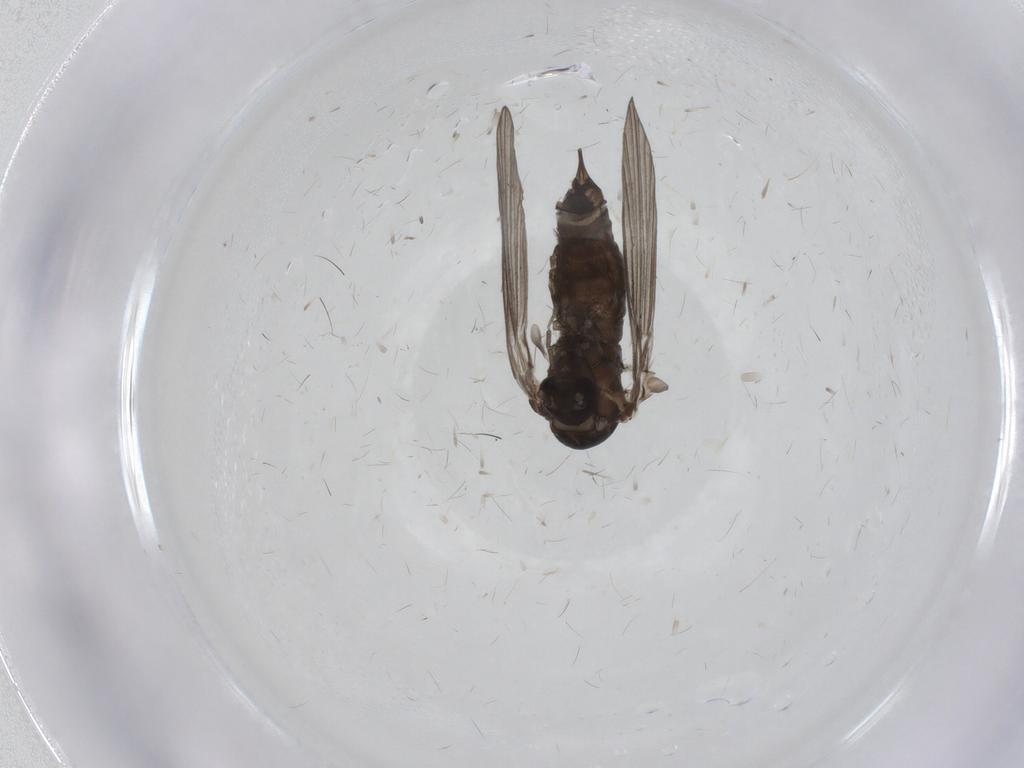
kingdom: Animalia
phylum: Arthropoda
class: Insecta
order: Diptera
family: Psychodidae
